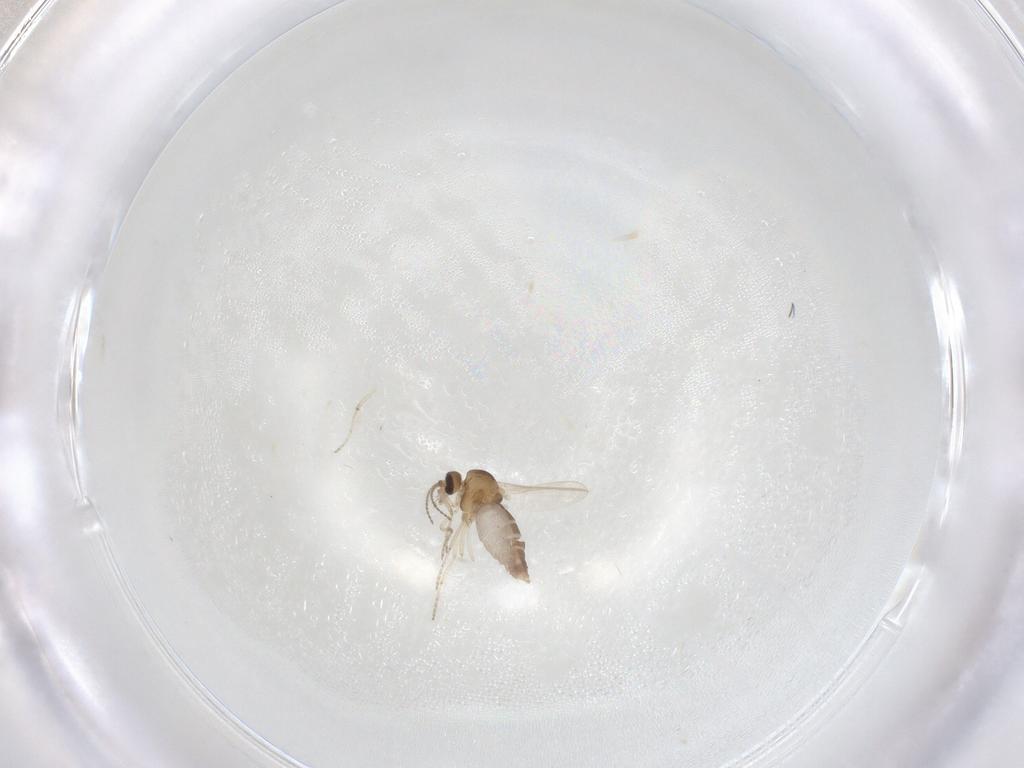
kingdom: Animalia
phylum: Arthropoda
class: Insecta
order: Diptera
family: Ceratopogonidae
